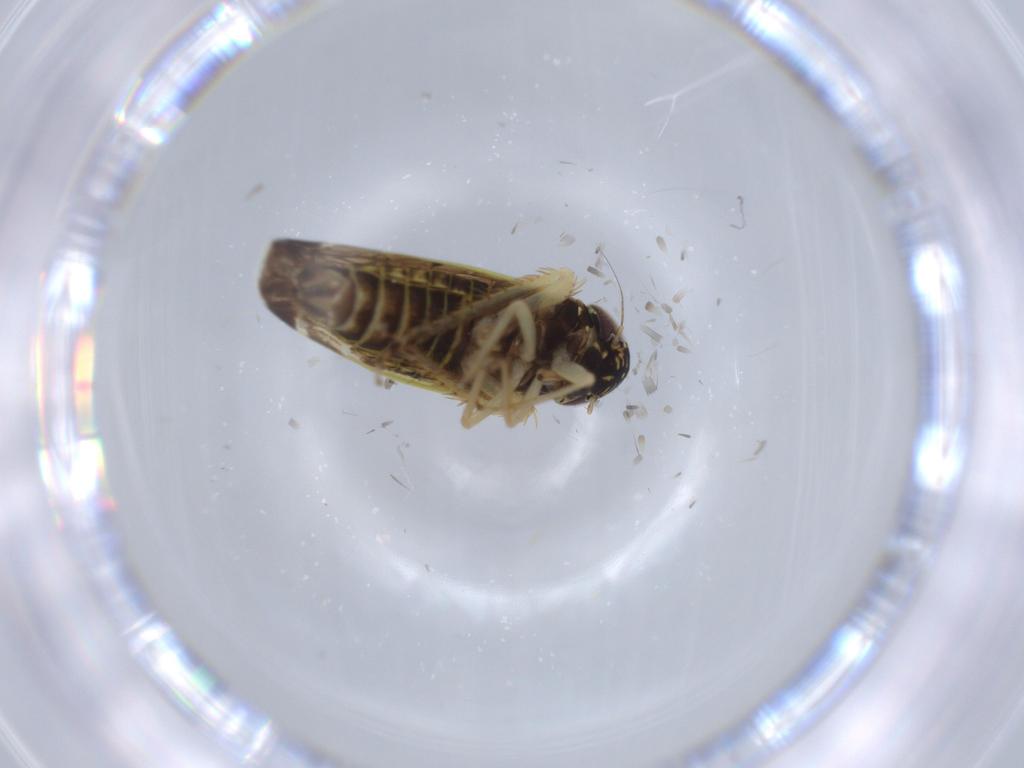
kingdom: Animalia
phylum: Arthropoda
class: Insecta
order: Hemiptera
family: Cicadellidae
